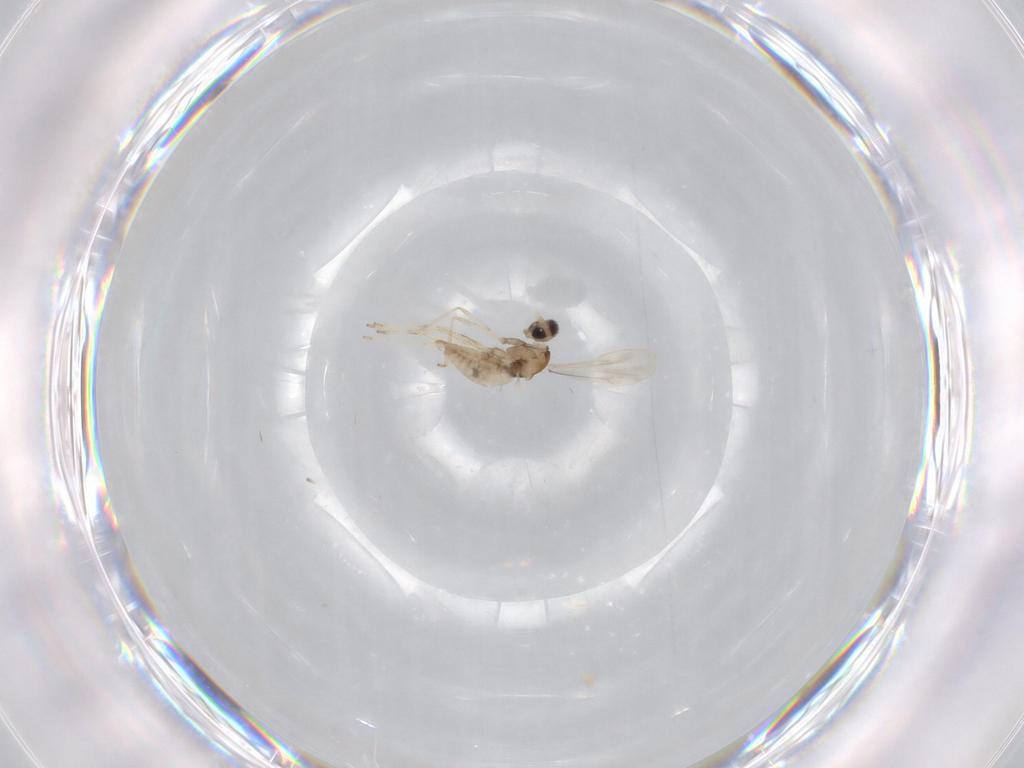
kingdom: Animalia
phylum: Arthropoda
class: Insecta
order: Diptera
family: Cecidomyiidae
